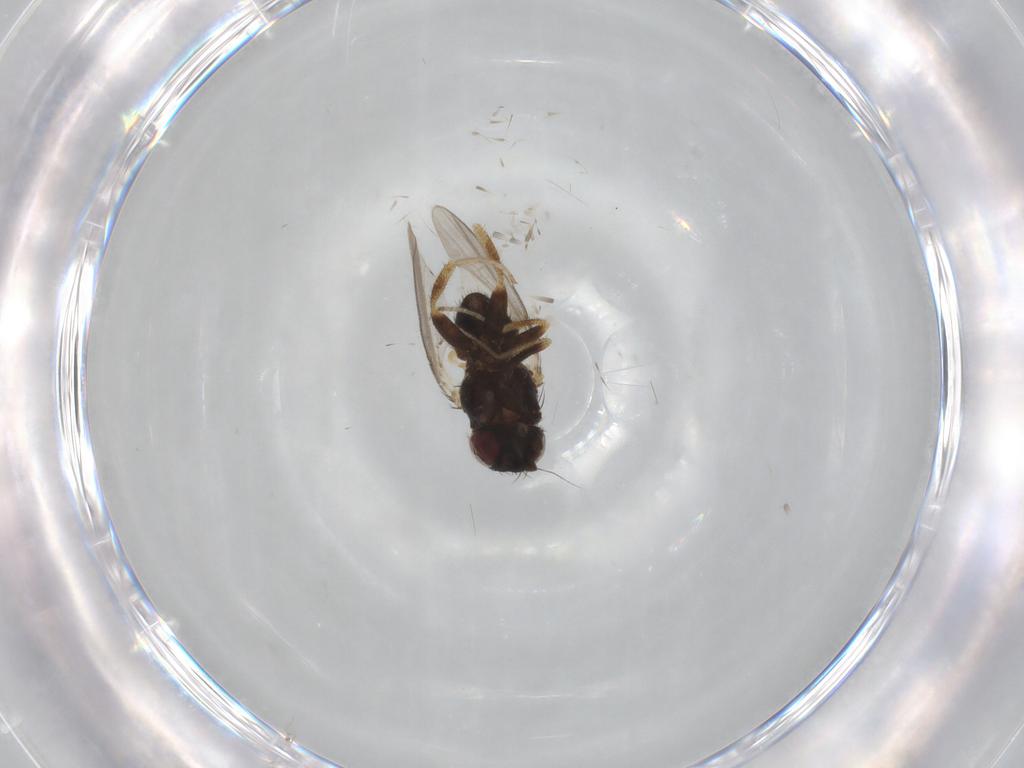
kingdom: Animalia
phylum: Arthropoda
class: Insecta
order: Diptera
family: Milichiidae
